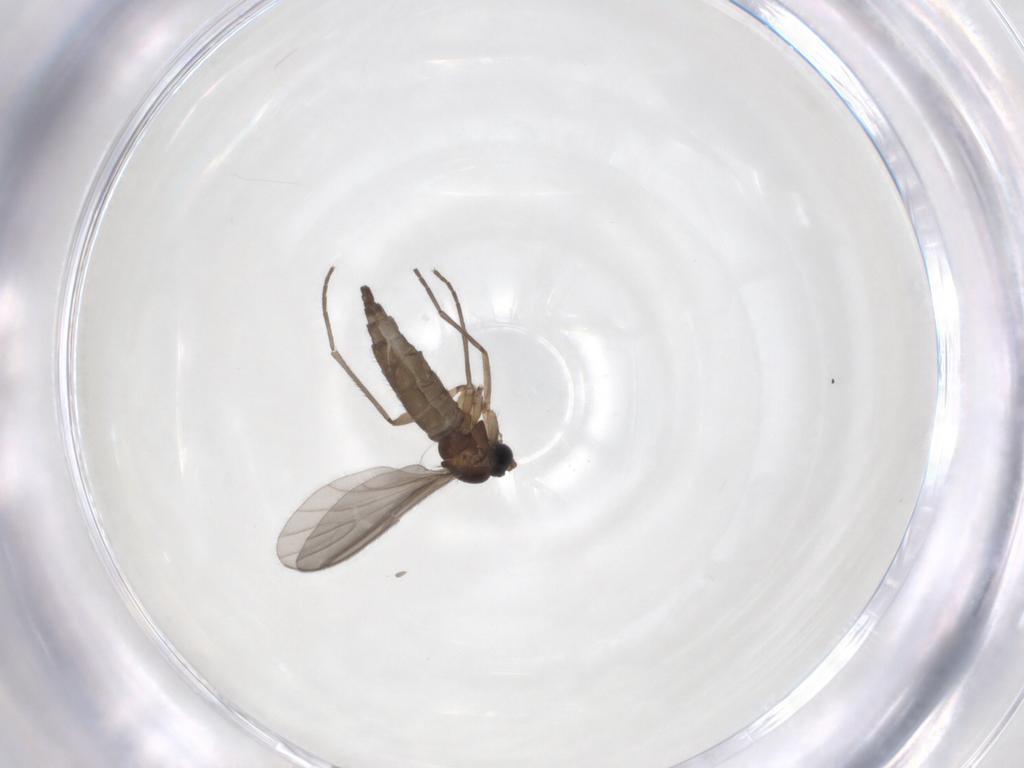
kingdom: Animalia
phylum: Arthropoda
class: Insecta
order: Diptera
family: Sciaridae
